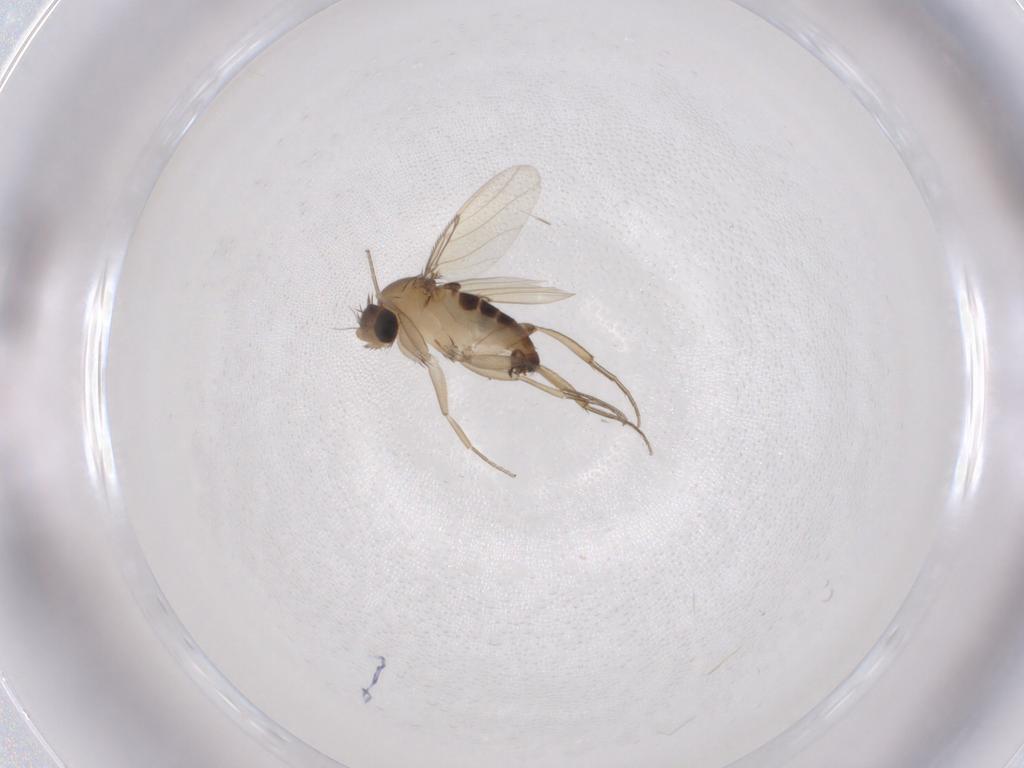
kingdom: Animalia
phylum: Arthropoda
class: Insecta
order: Diptera
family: Phoridae
